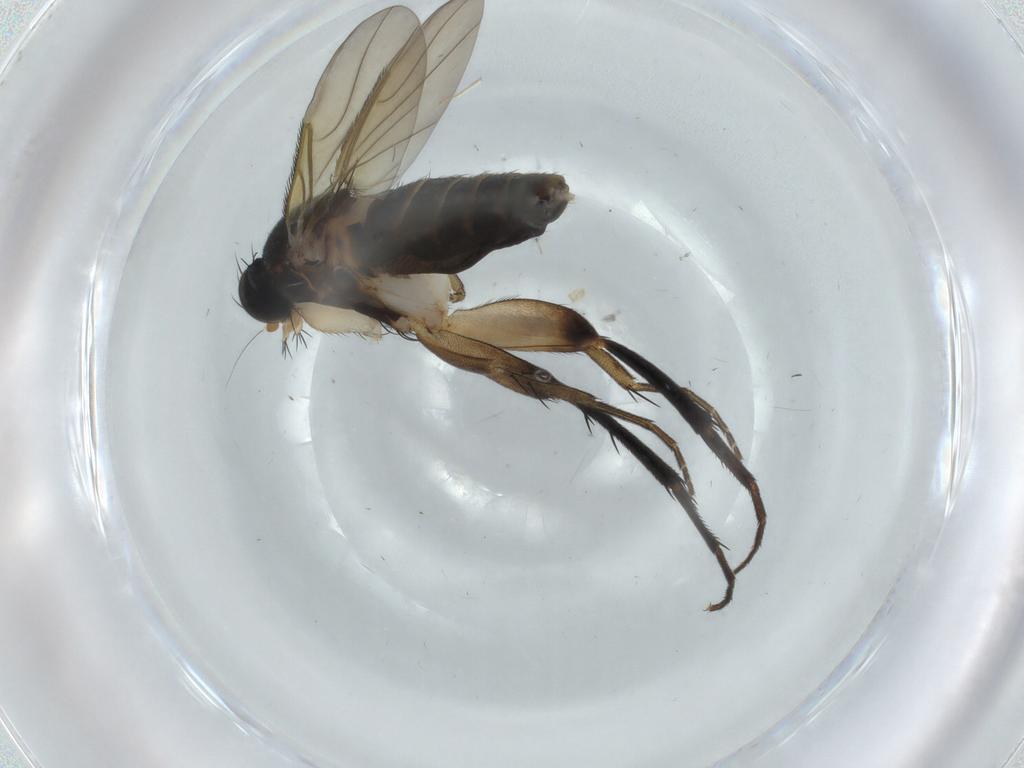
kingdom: Animalia
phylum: Arthropoda
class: Insecta
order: Diptera
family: Phoridae
